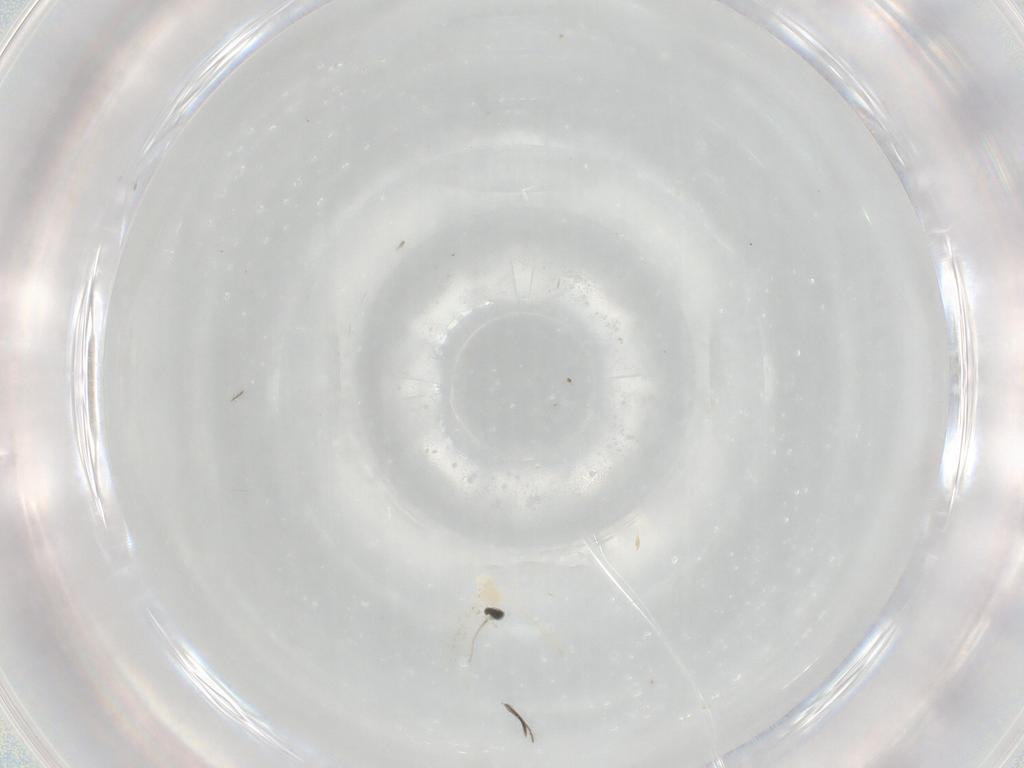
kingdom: Animalia
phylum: Arthropoda
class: Insecta
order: Diptera
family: Cecidomyiidae
